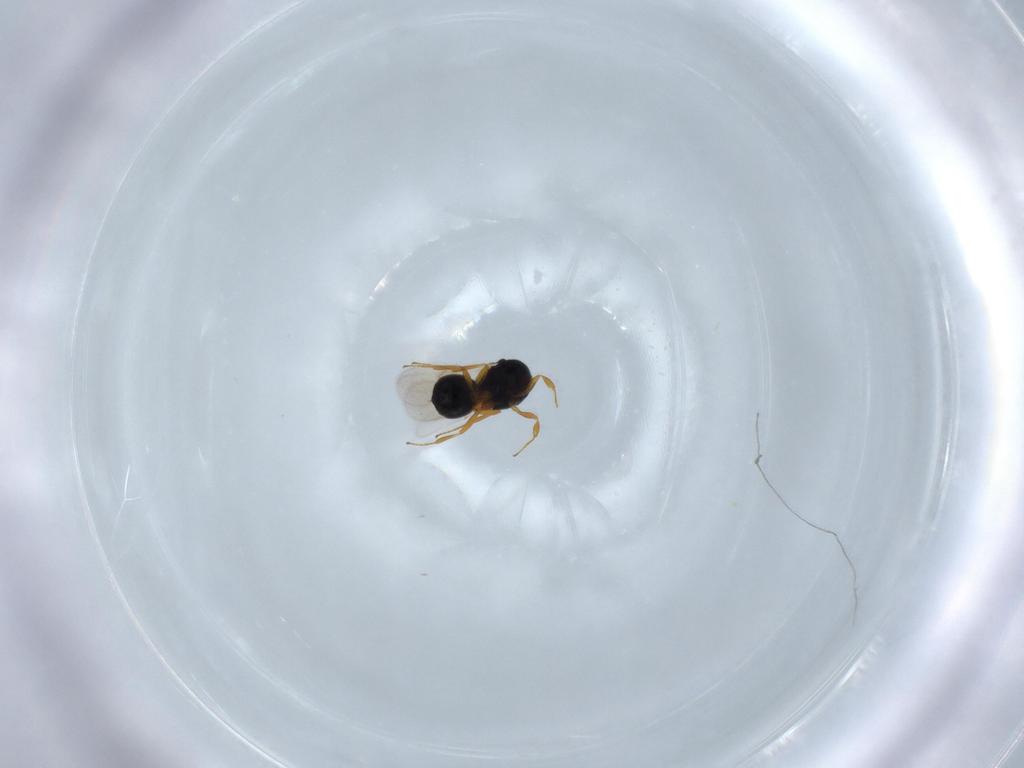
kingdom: Animalia
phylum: Arthropoda
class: Insecta
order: Hymenoptera
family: Scelionidae
